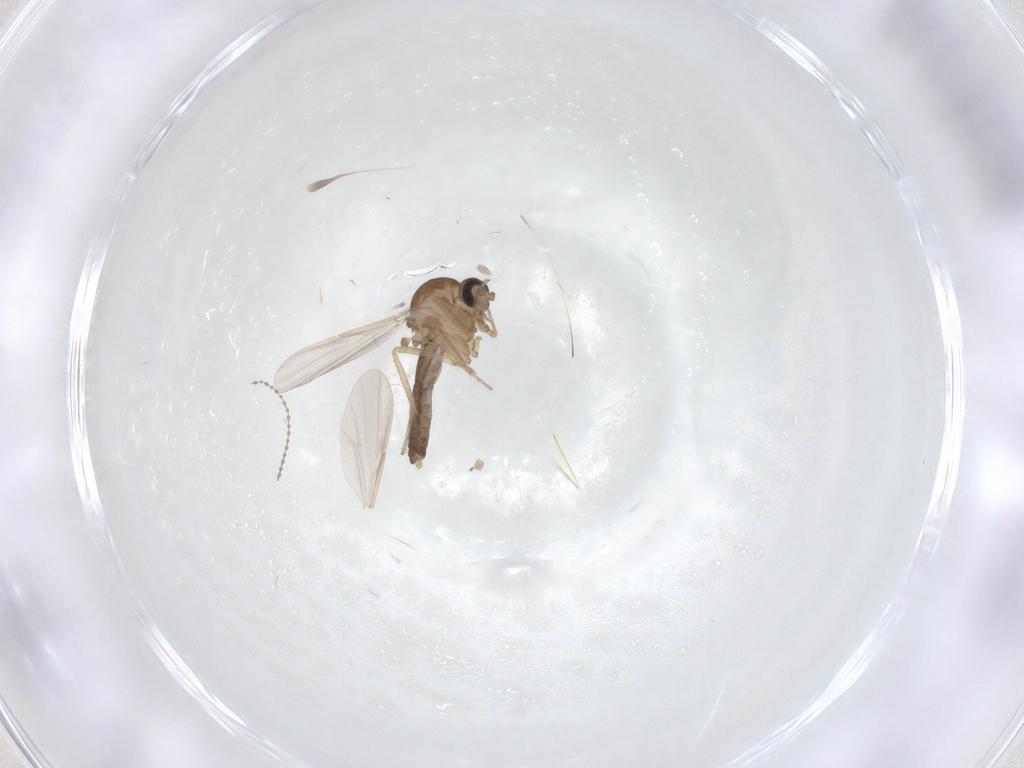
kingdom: Animalia
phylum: Arthropoda
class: Insecta
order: Diptera
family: Ceratopogonidae
